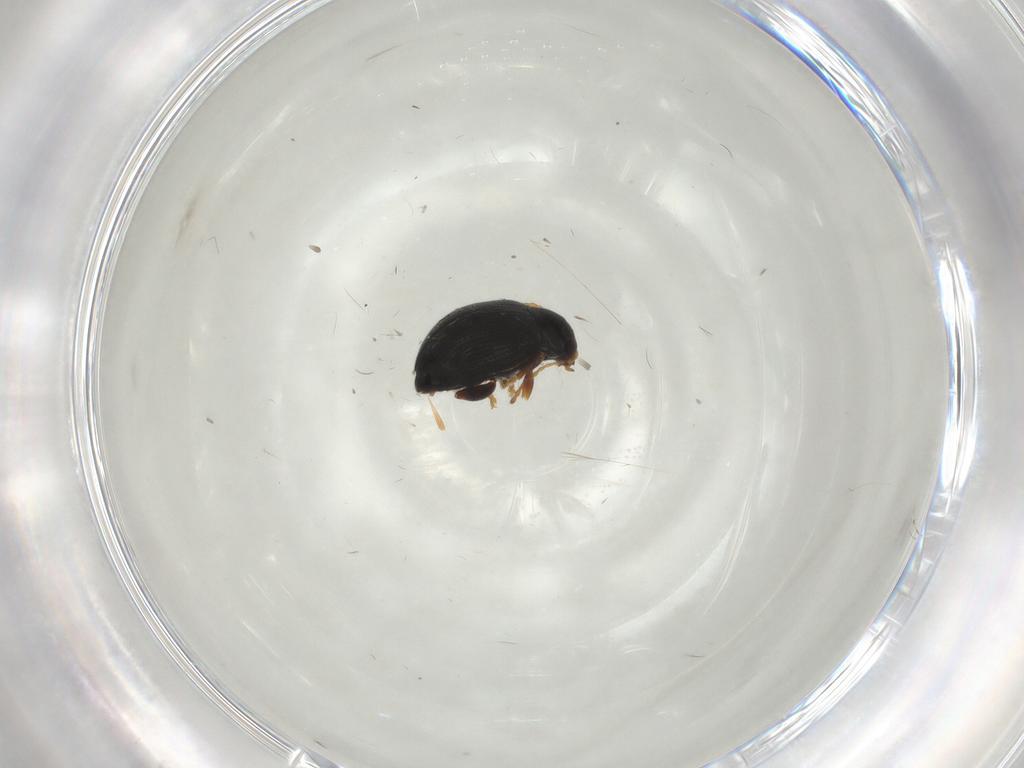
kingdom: Animalia
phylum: Arthropoda
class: Insecta
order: Coleoptera
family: Chrysomelidae
